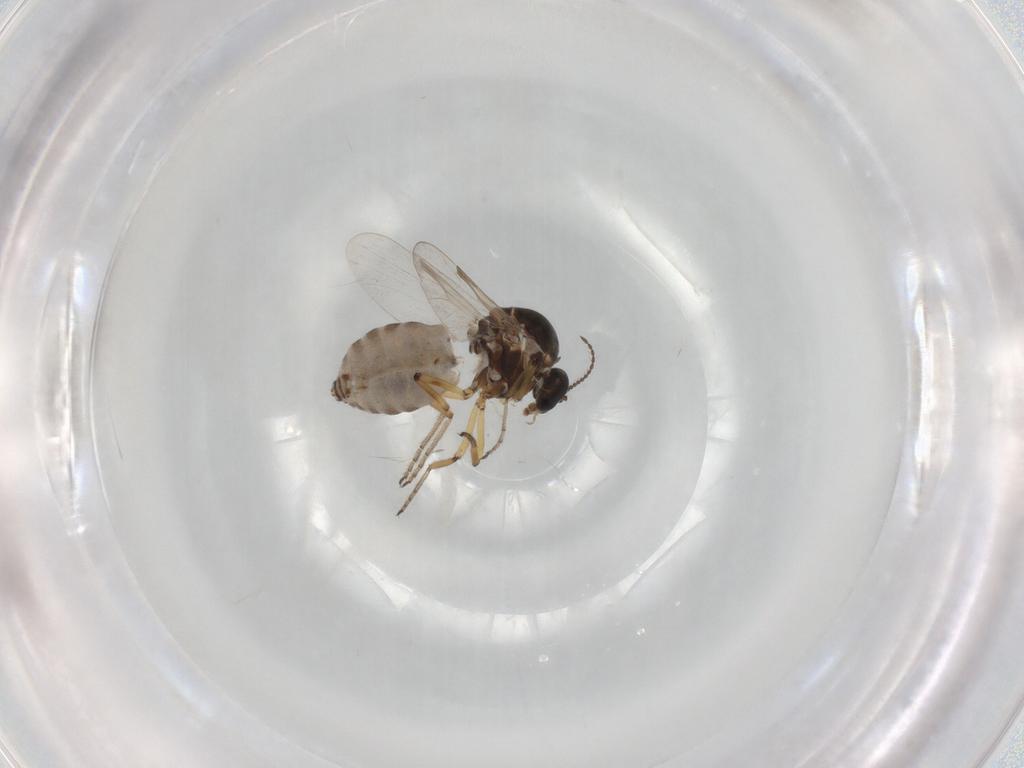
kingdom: Animalia
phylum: Arthropoda
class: Insecta
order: Diptera
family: Ceratopogonidae
